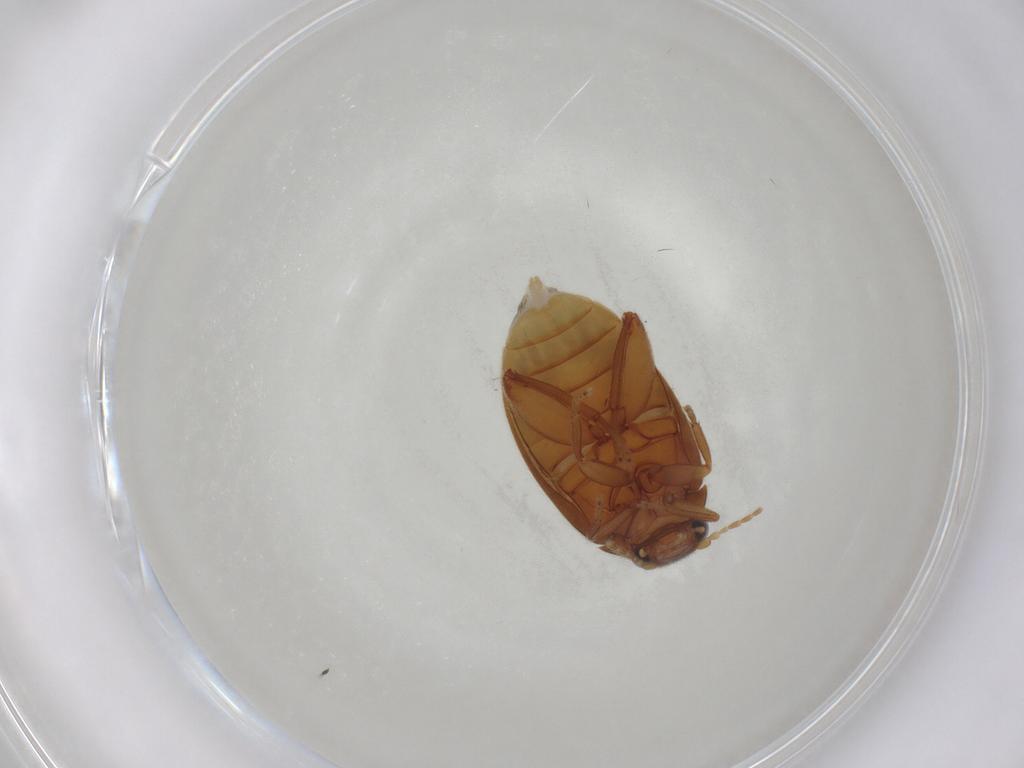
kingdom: Animalia
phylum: Arthropoda
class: Insecta
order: Coleoptera
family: Scirtidae
